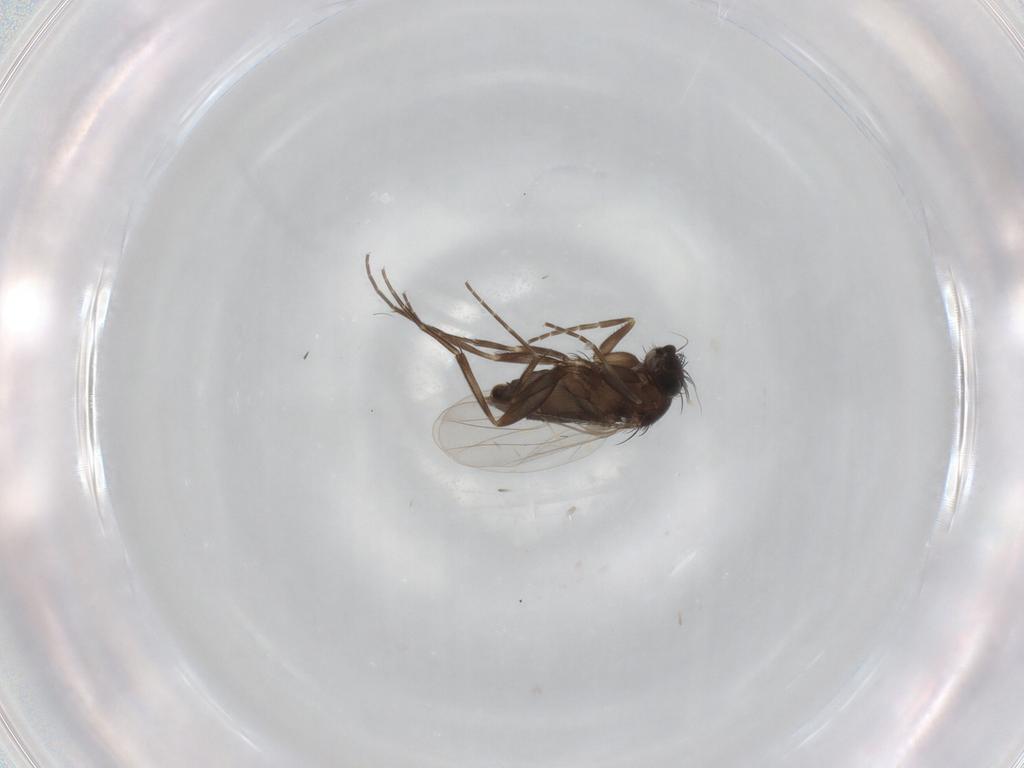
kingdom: Animalia
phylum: Arthropoda
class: Insecta
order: Diptera
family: Phoridae
